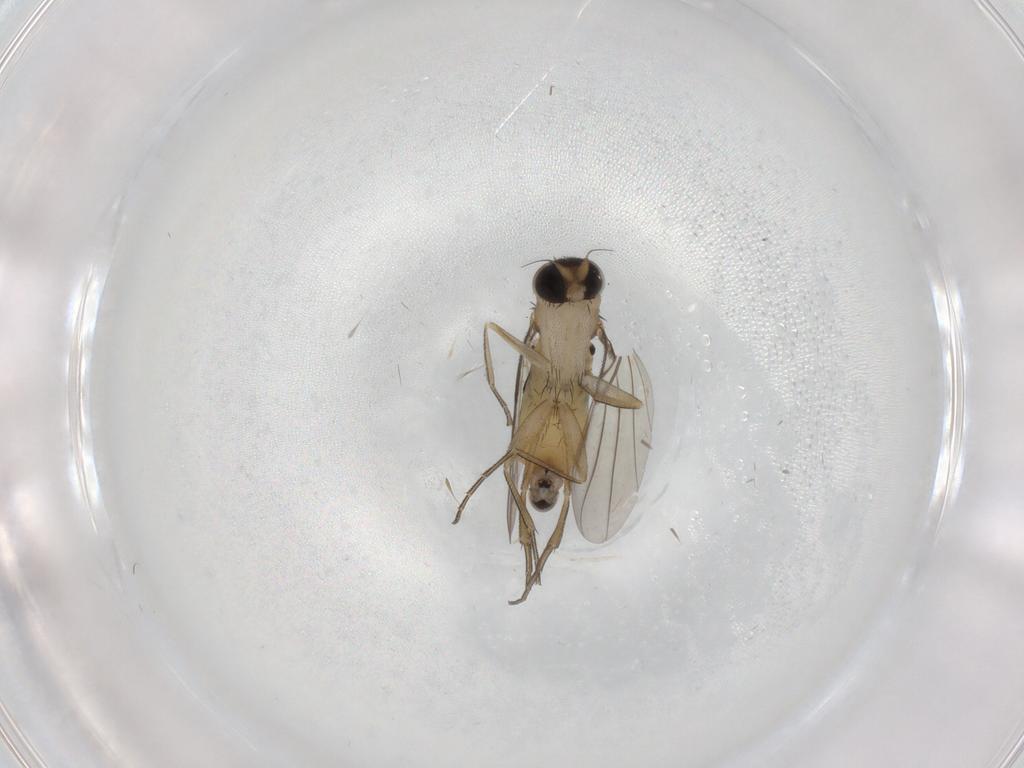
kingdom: Animalia
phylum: Arthropoda
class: Insecta
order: Diptera
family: Phoridae
